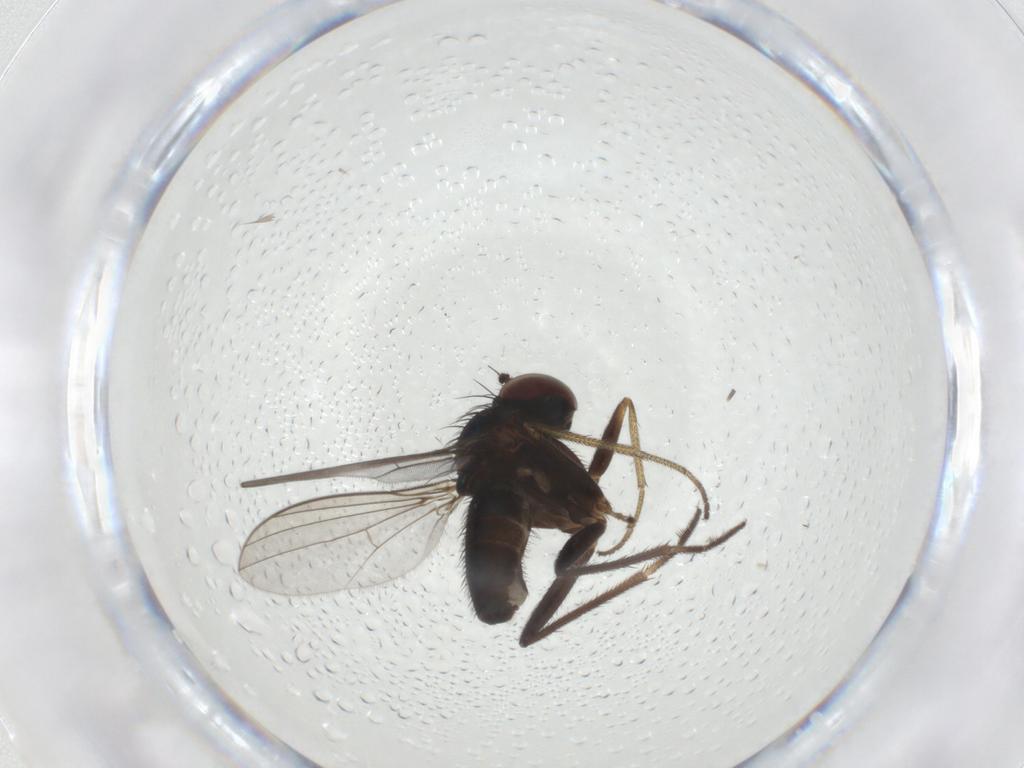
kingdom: Animalia
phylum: Arthropoda
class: Insecta
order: Diptera
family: Dolichopodidae
